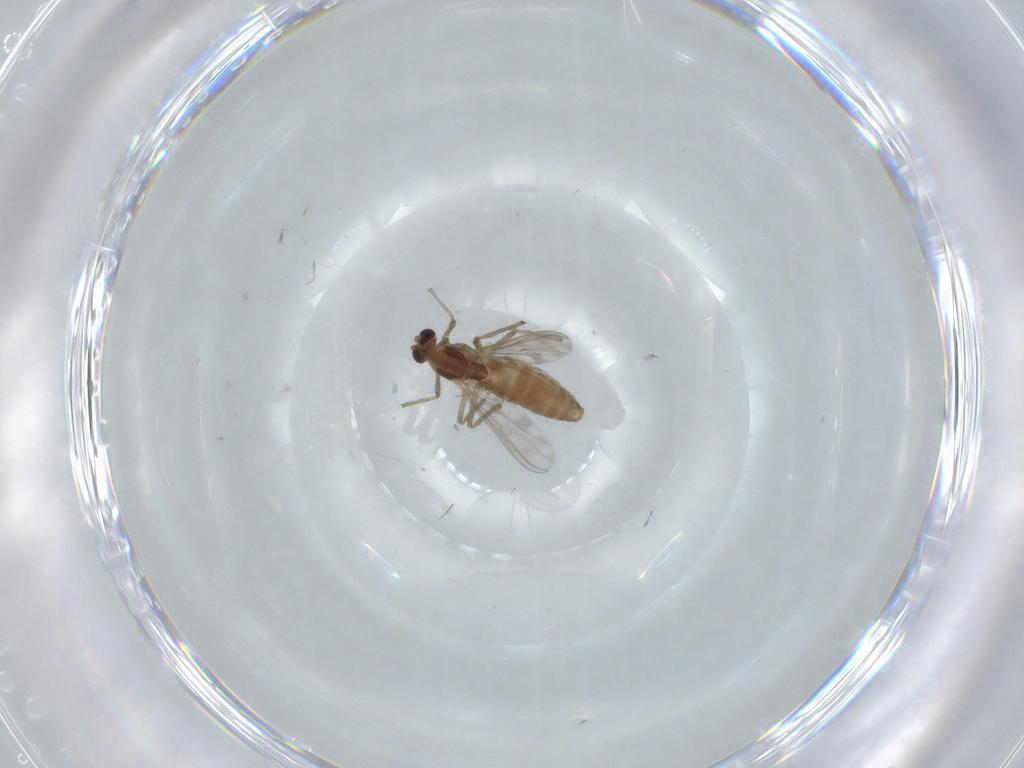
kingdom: Animalia
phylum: Arthropoda
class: Insecta
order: Diptera
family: Chironomidae
